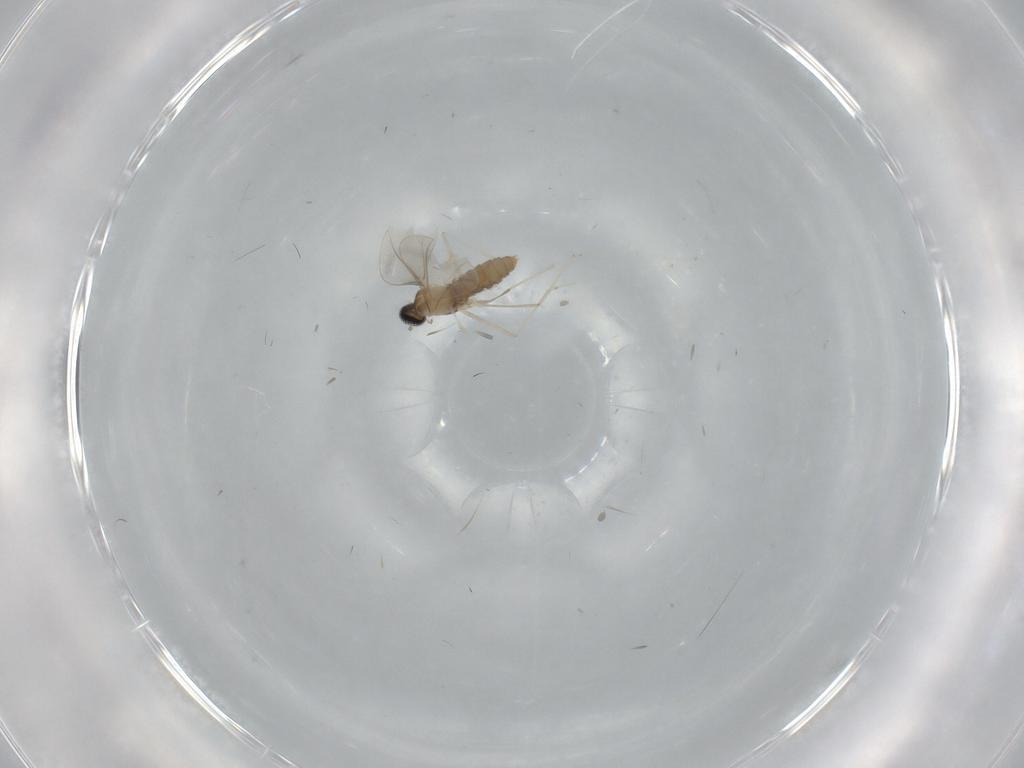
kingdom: Animalia
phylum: Arthropoda
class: Insecta
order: Diptera
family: Cecidomyiidae
